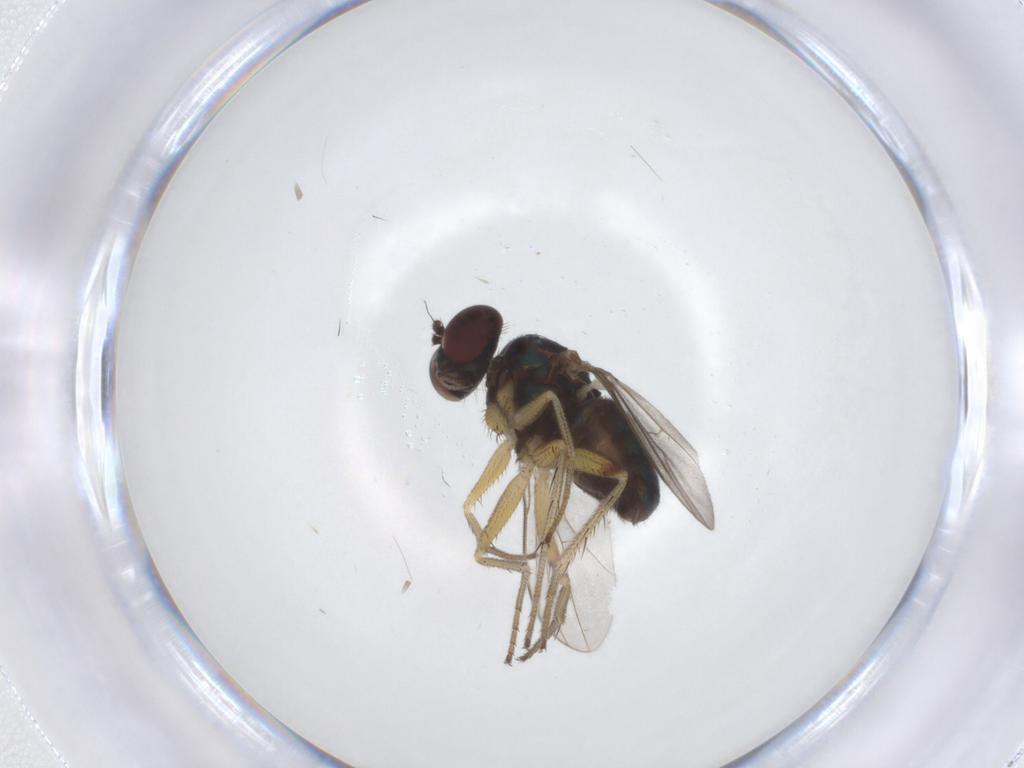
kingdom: Animalia
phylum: Arthropoda
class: Insecta
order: Diptera
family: Dolichopodidae
